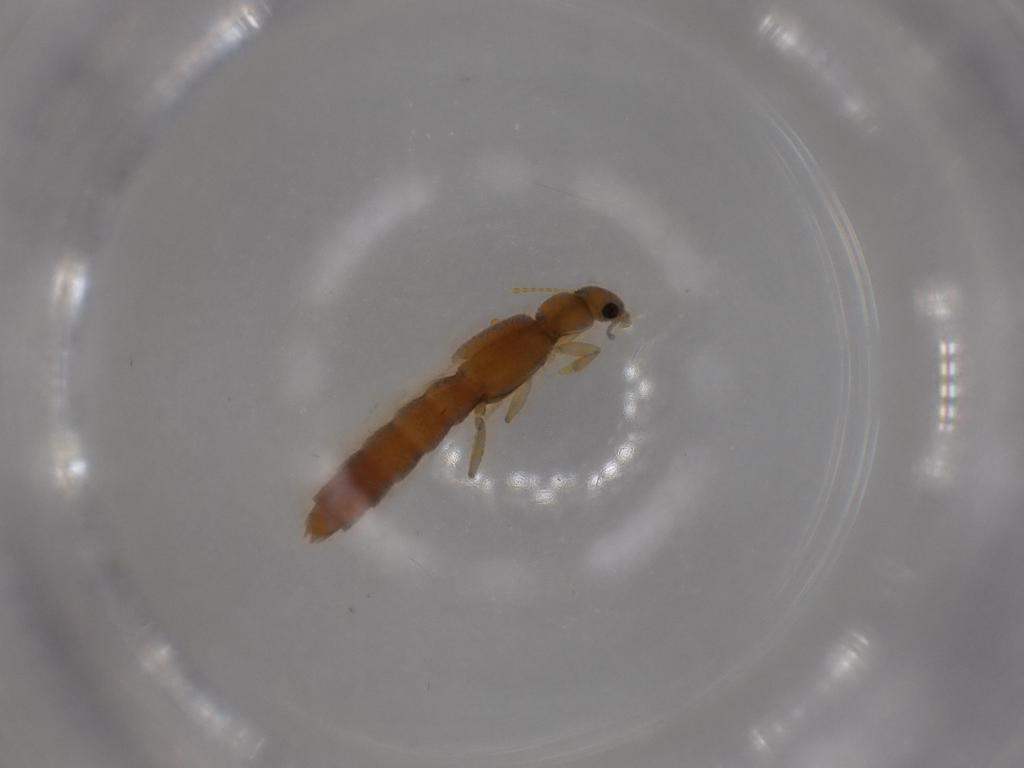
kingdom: Animalia
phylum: Arthropoda
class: Insecta
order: Coleoptera
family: Staphylinidae
